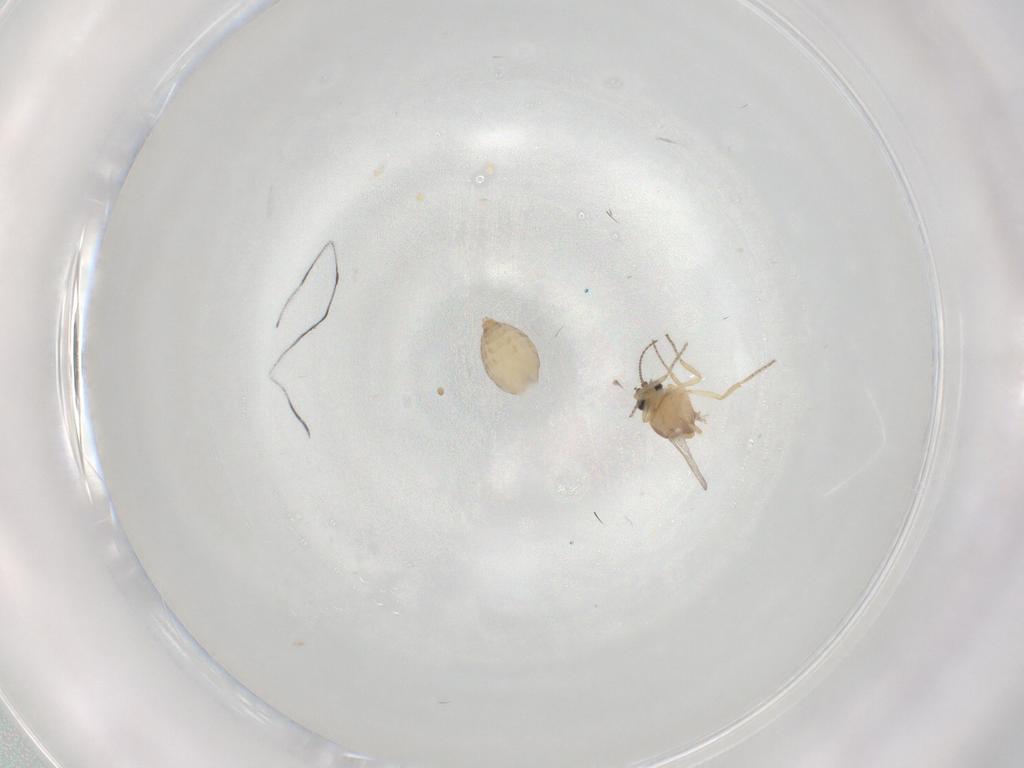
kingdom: Animalia
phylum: Arthropoda
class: Insecta
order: Diptera
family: Ceratopogonidae
